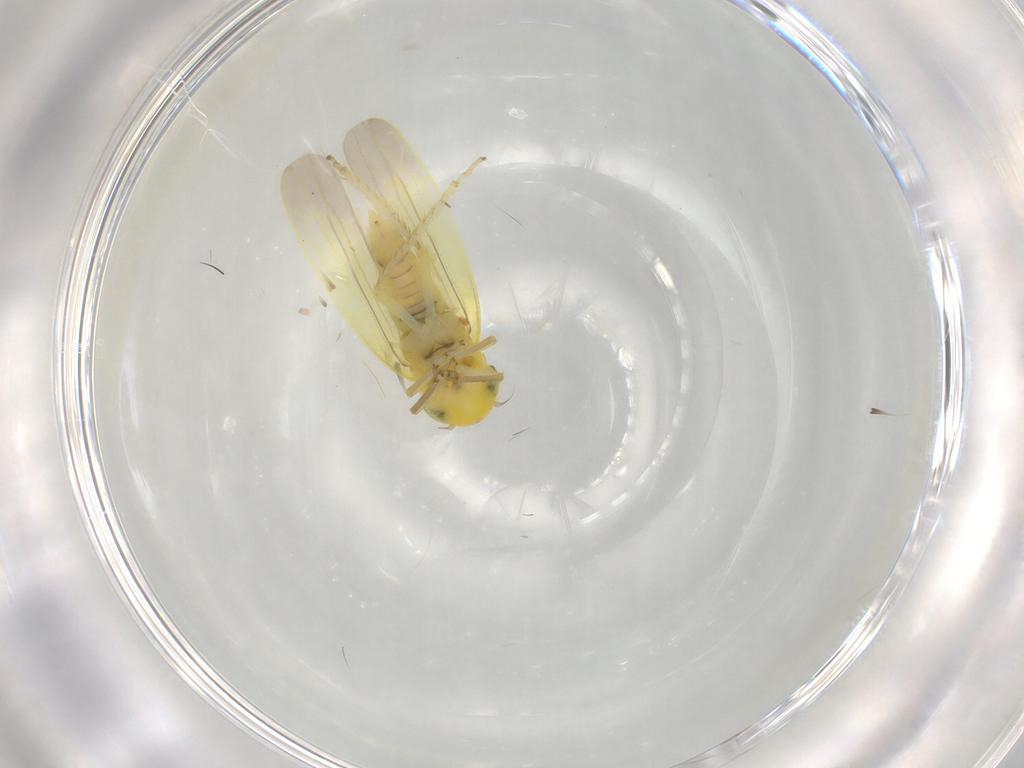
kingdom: Animalia
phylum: Arthropoda
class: Insecta
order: Hemiptera
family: Cicadellidae
